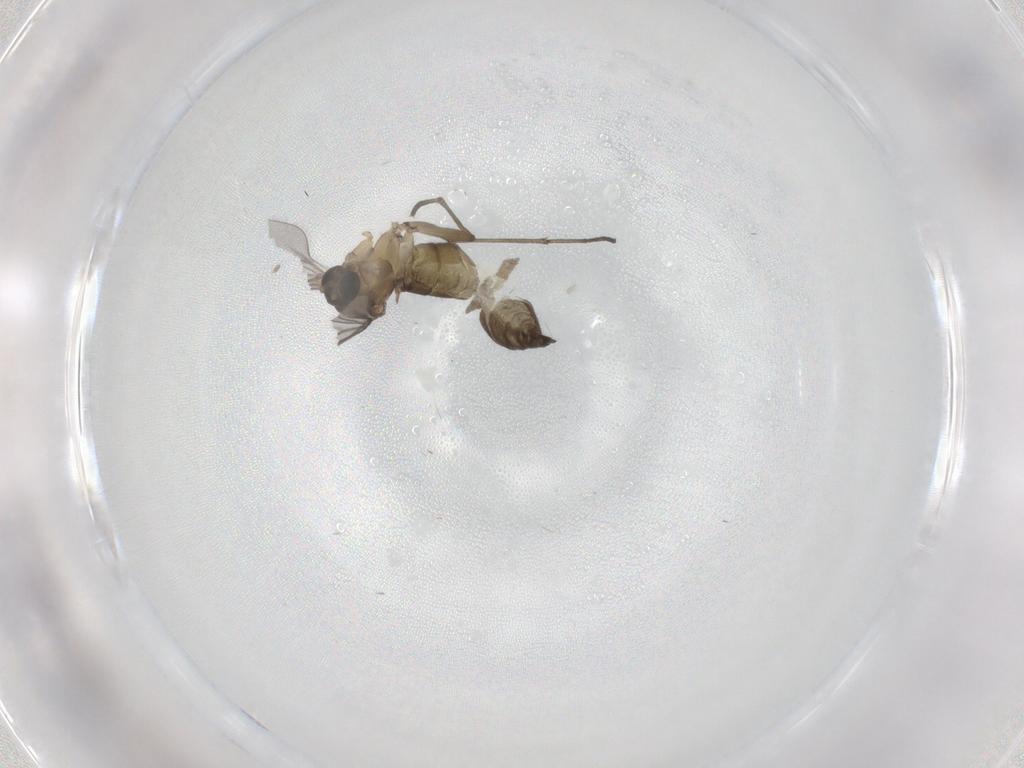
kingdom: Animalia
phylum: Arthropoda
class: Insecta
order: Diptera
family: Cecidomyiidae
